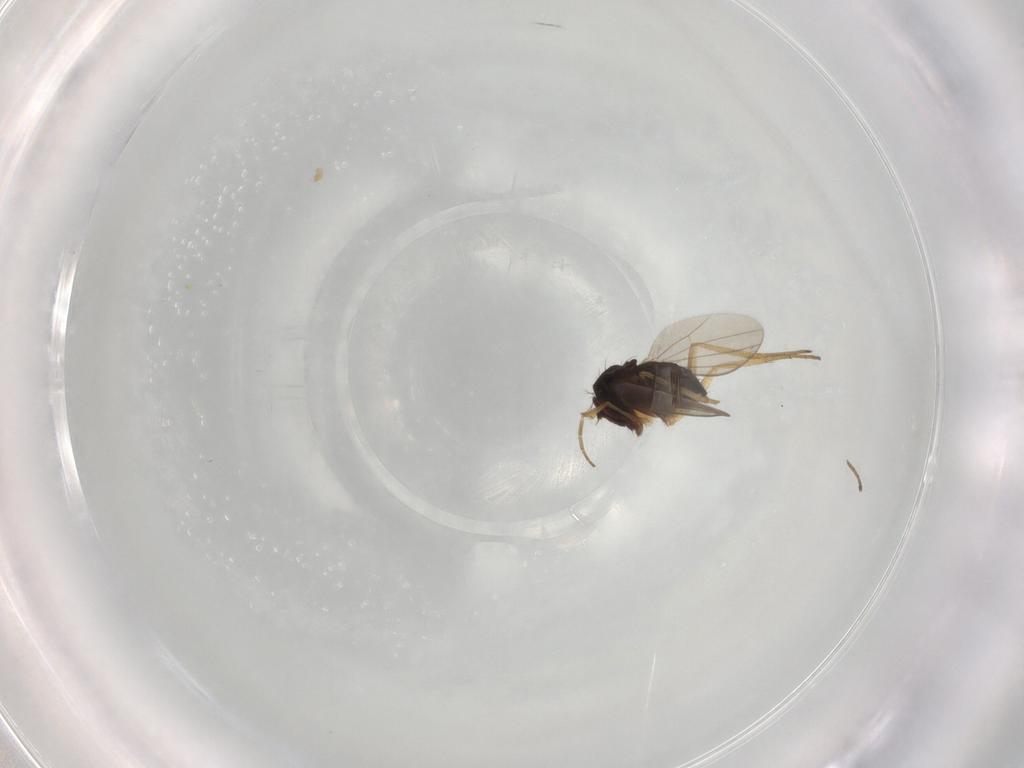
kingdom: Animalia
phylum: Arthropoda
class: Insecta
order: Diptera
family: Dolichopodidae
